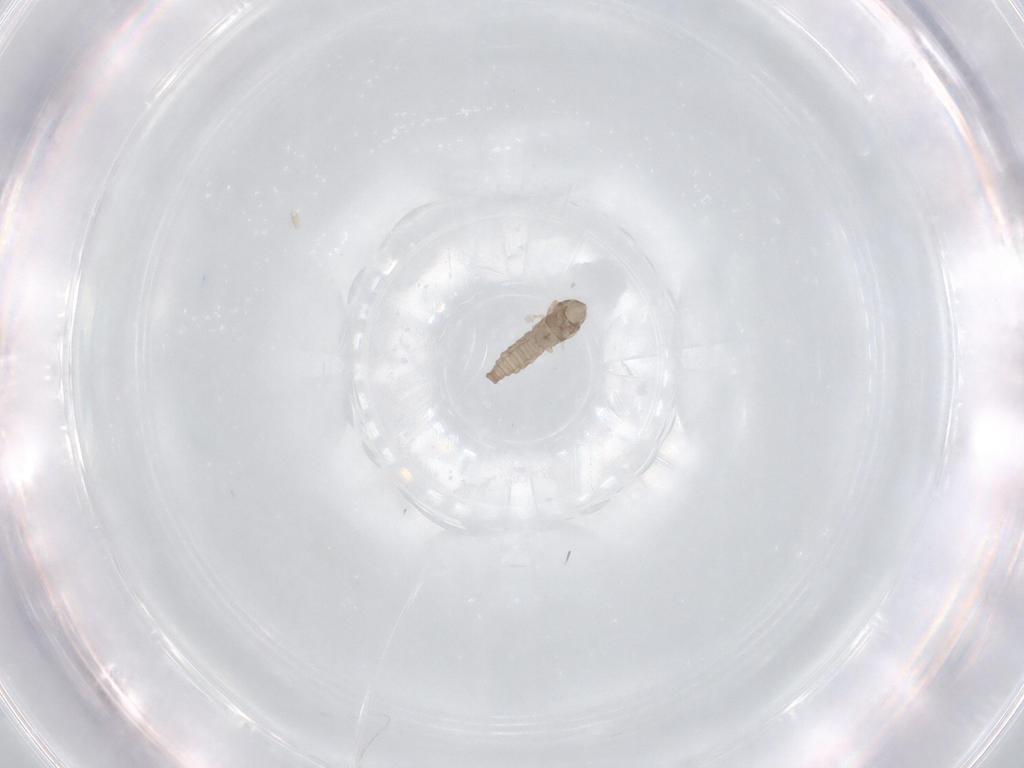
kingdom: Animalia
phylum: Arthropoda
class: Insecta
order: Diptera
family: Cecidomyiidae
